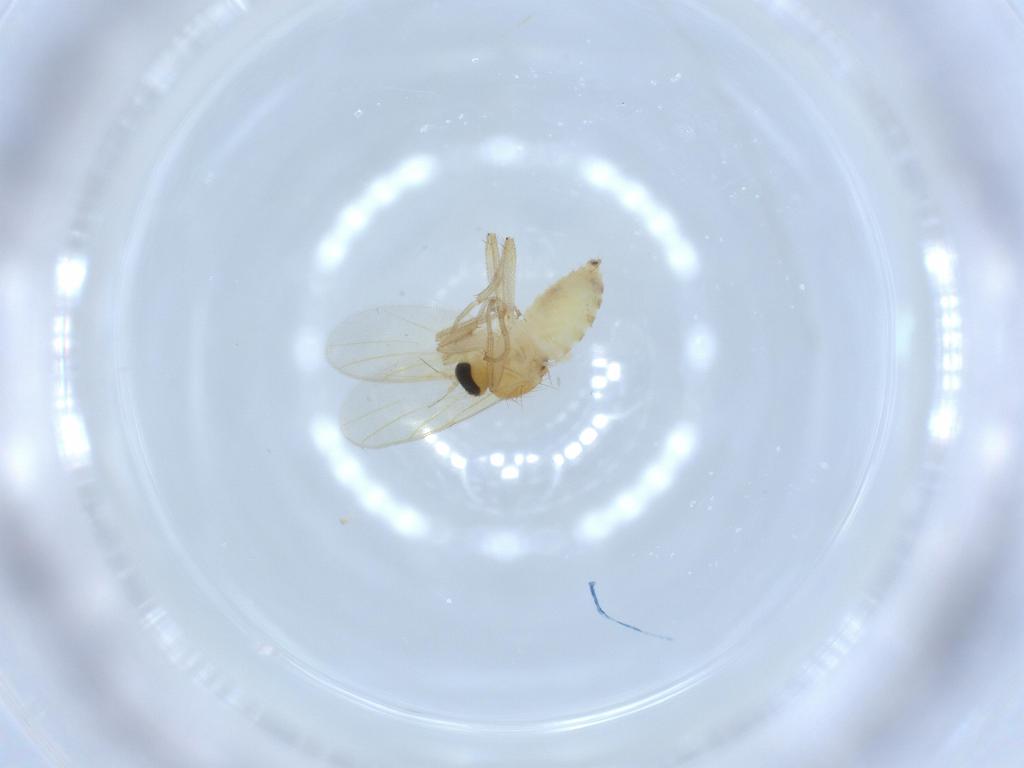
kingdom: Animalia
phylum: Arthropoda
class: Insecta
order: Diptera
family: Hybotidae
